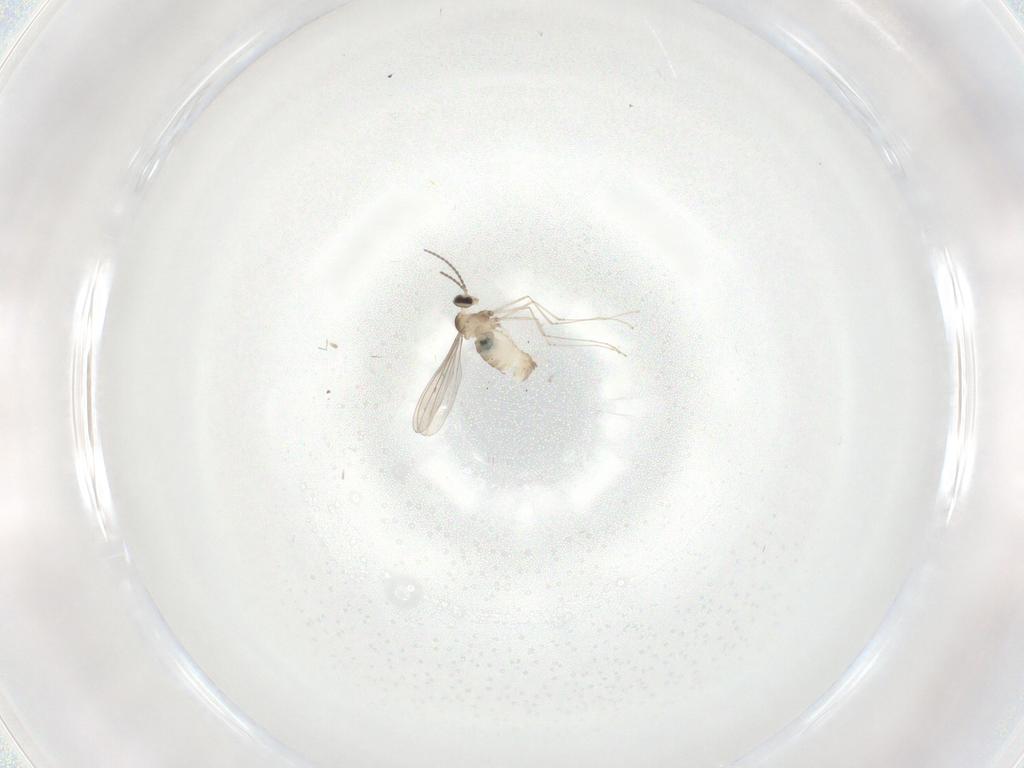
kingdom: Animalia
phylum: Arthropoda
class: Insecta
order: Diptera
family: Cecidomyiidae
